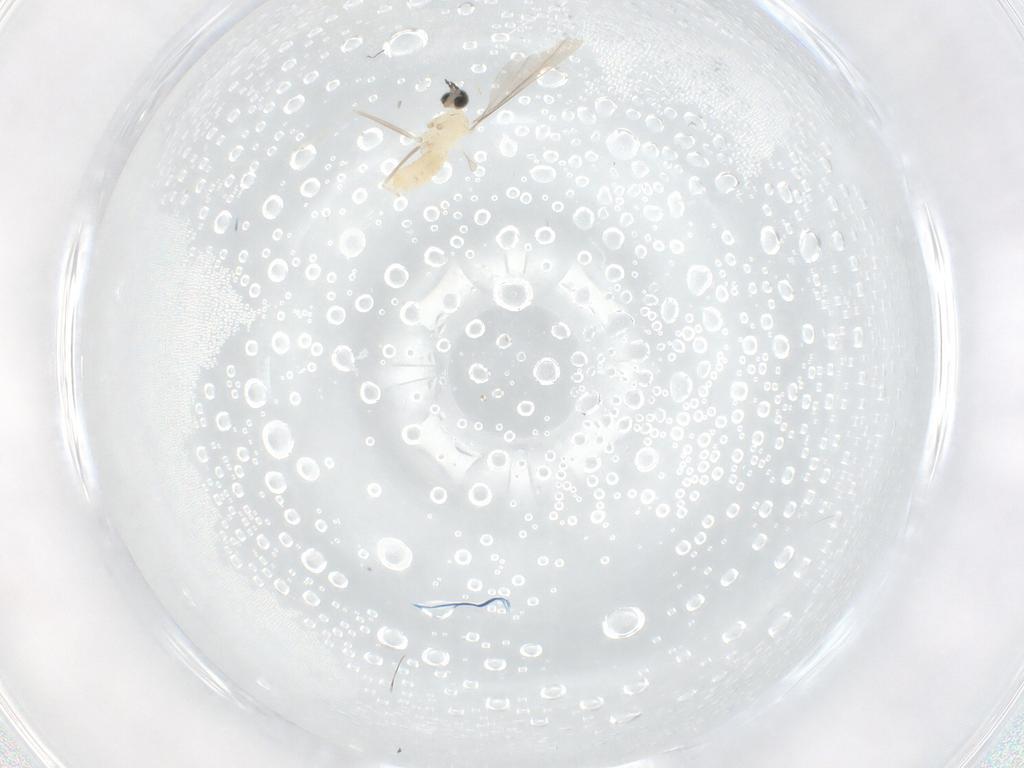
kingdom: Animalia
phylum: Arthropoda
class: Insecta
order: Diptera
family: Cecidomyiidae
